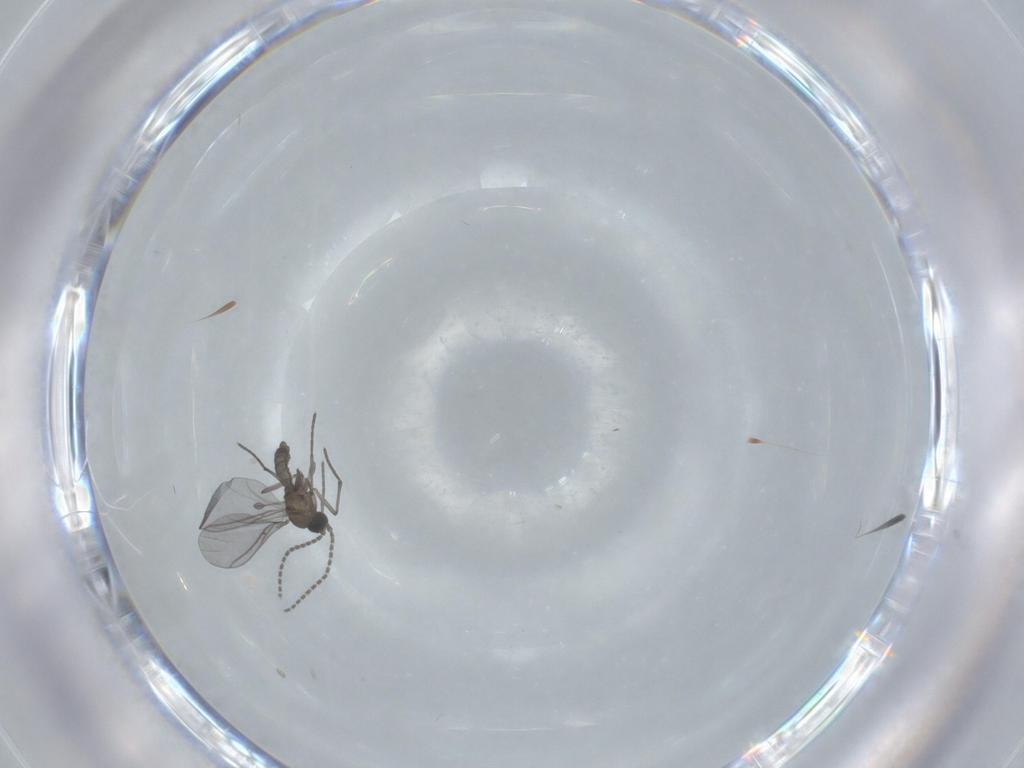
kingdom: Animalia
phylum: Arthropoda
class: Insecta
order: Diptera
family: Sciaridae
